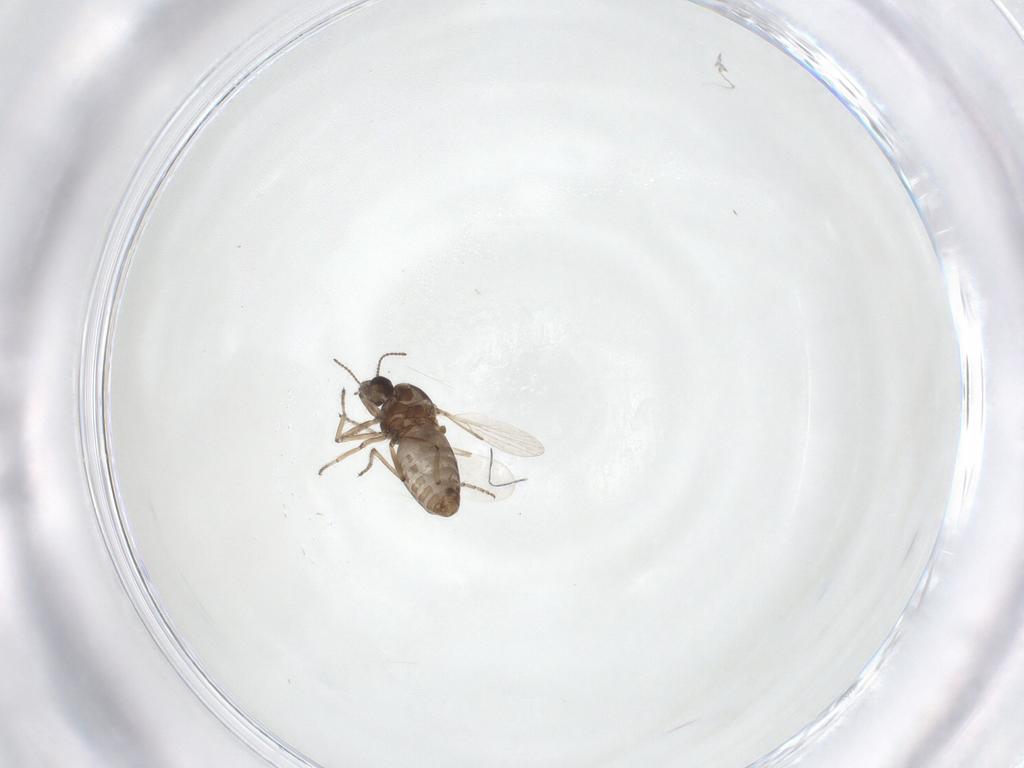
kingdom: Animalia
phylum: Arthropoda
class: Insecta
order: Diptera
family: Ceratopogonidae
